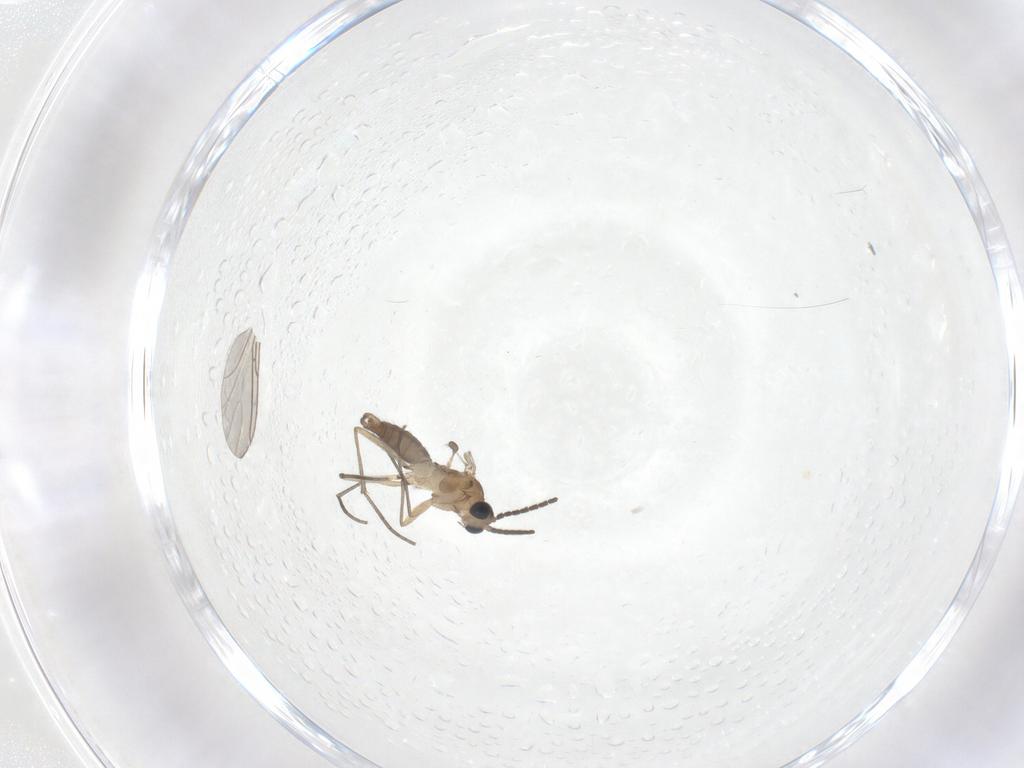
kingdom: Animalia
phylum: Arthropoda
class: Insecta
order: Diptera
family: Sciaridae
